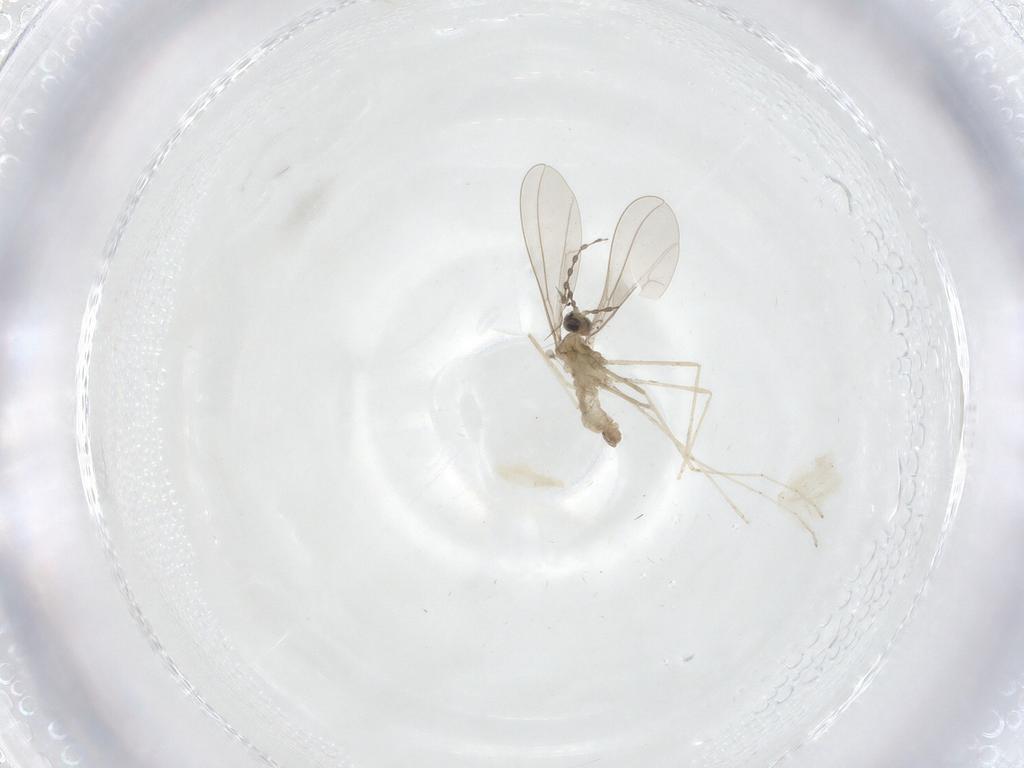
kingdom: Animalia
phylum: Arthropoda
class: Insecta
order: Diptera
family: Cecidomyiidae
